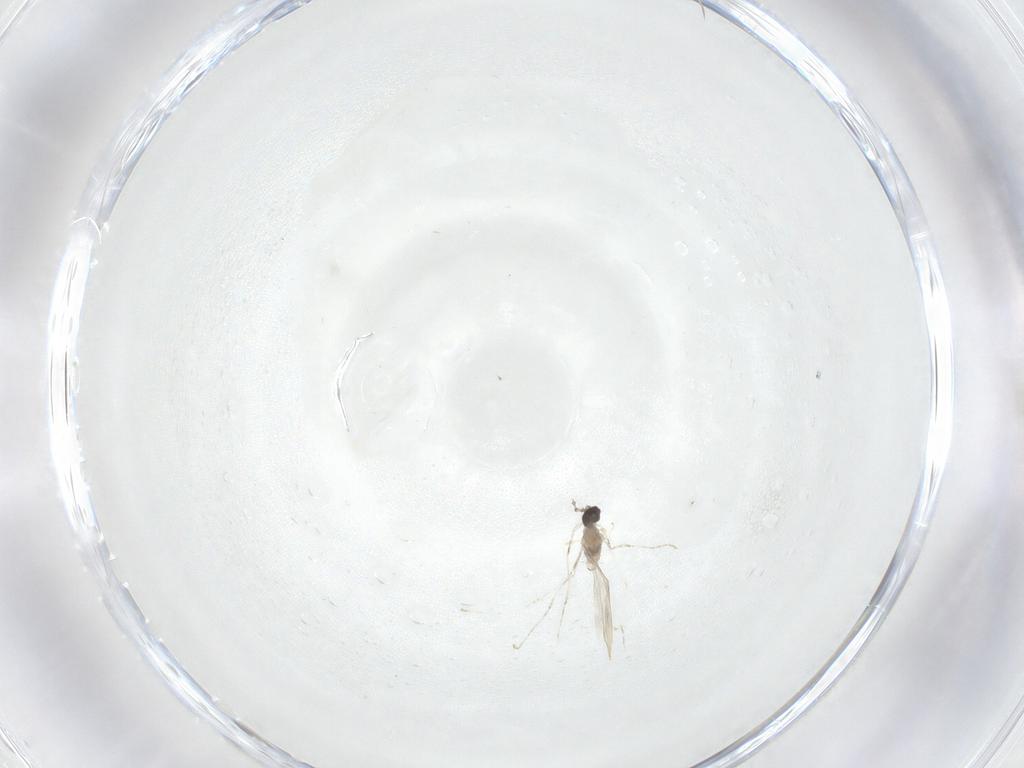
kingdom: Animalia
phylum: Arthropoda
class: Insecta
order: Diptera
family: Cecidomyiidae
